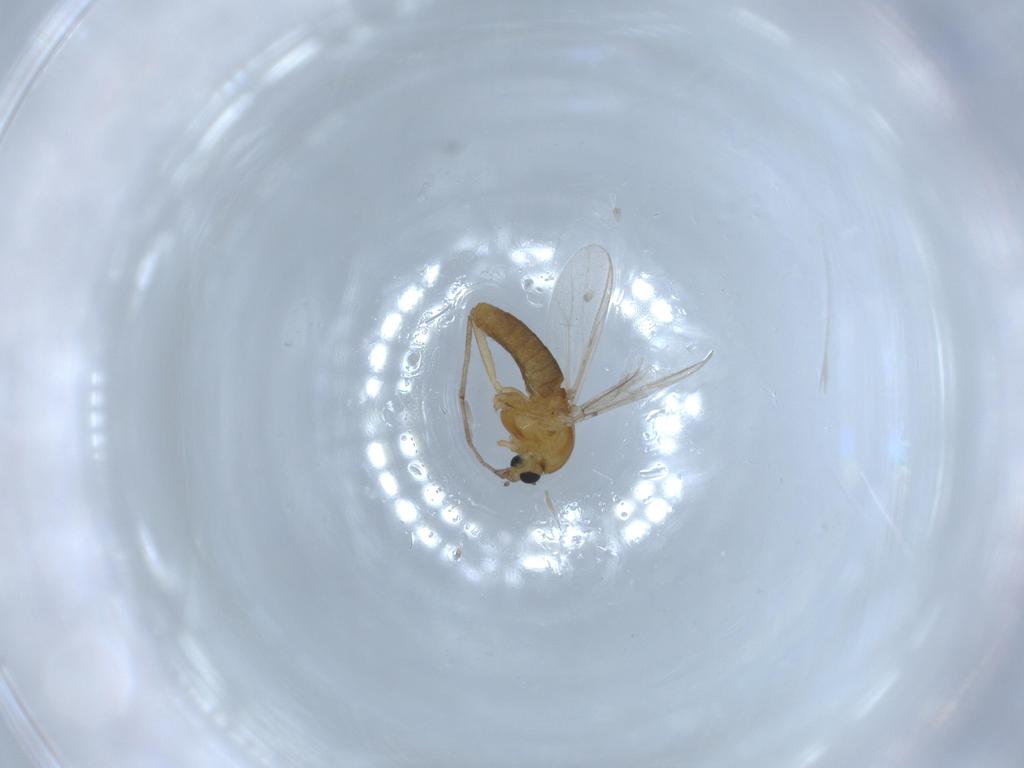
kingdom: Animalia
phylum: Arthropoda
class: Insecta
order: Diptera
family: Chironomidae
